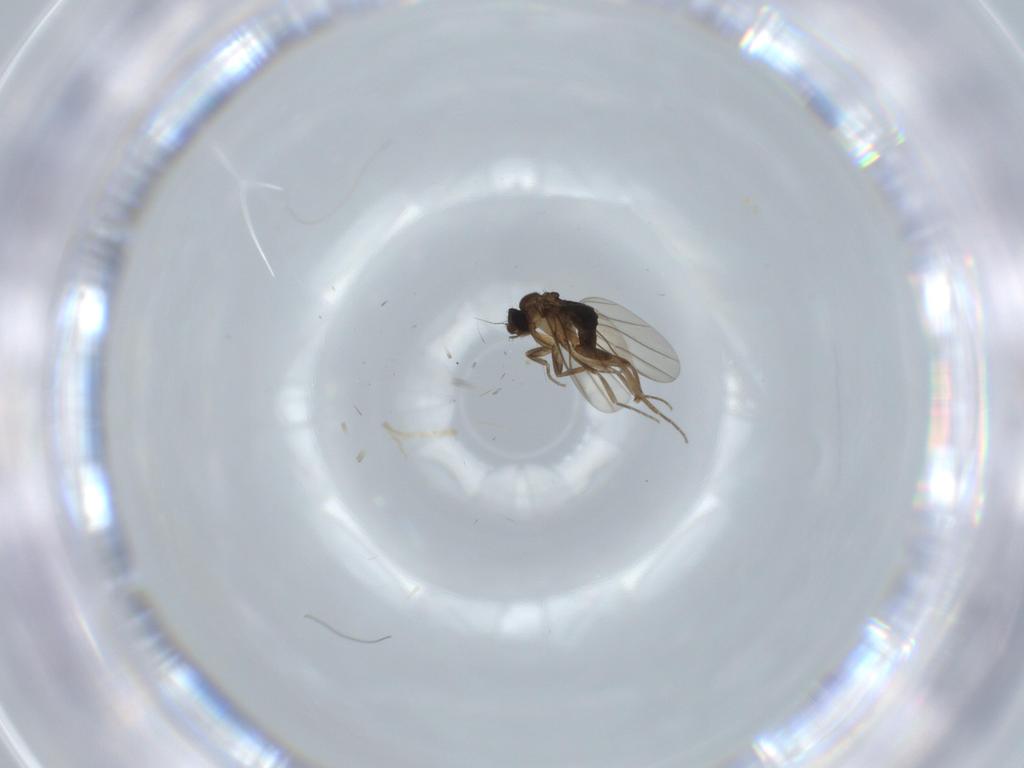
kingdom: Animalia
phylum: Arthropoda
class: Insecta
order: Diptera
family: Phoridae
